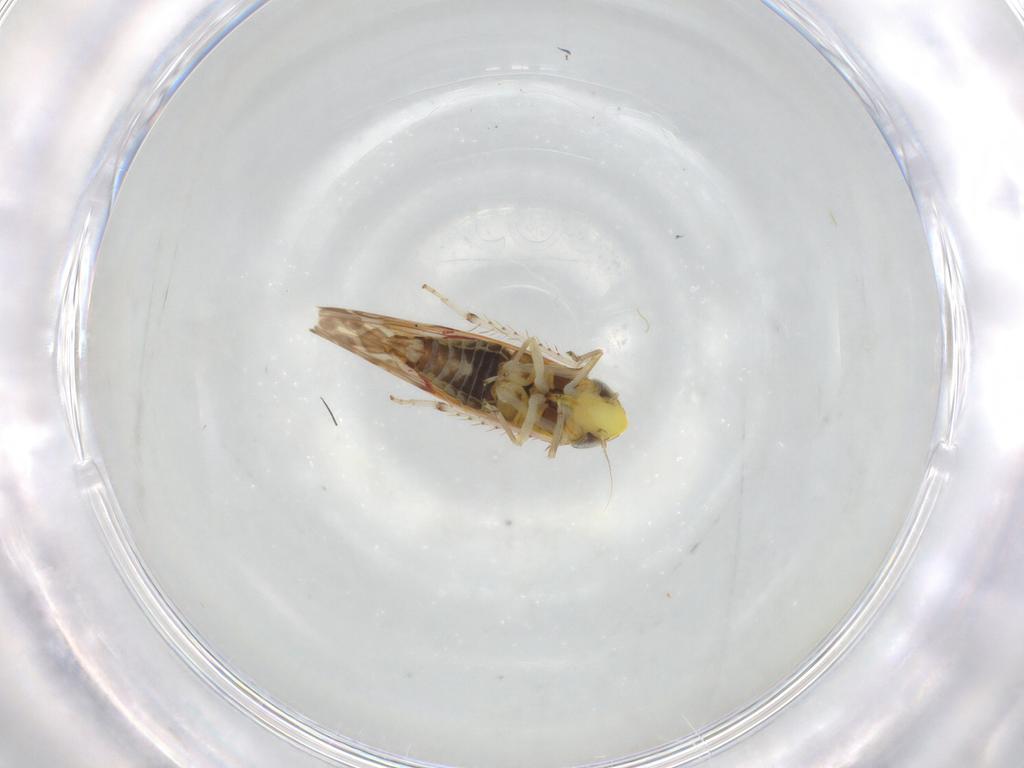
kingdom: Animalia
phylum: Arthropoda
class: Insecta
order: Hemiptera
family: Cicadellidae
